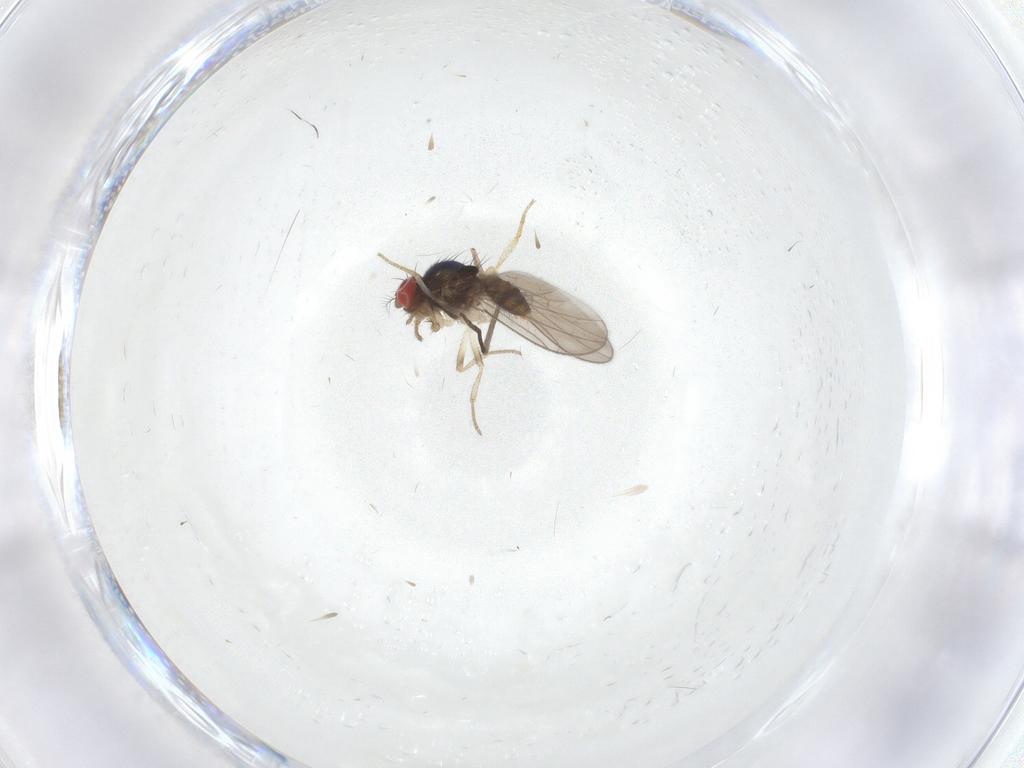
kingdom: Animalia
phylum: Arthropoda
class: Insecta
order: Diptera
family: Drosophilidae
